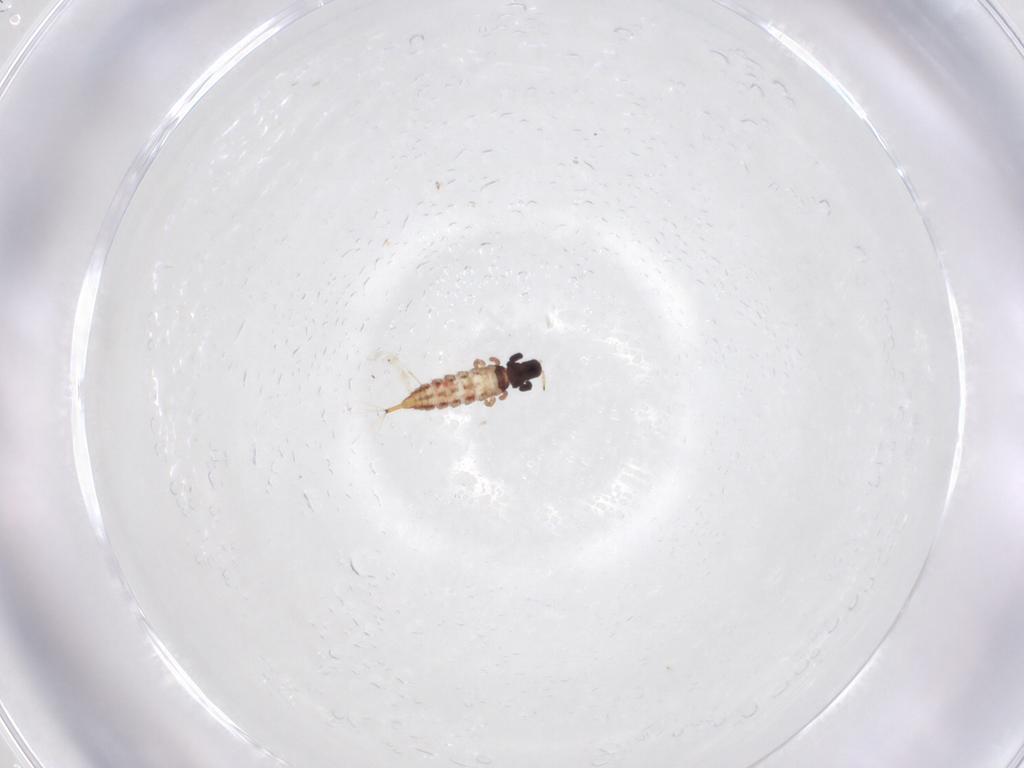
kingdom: Animalia
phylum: Arthropoda
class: Insecta
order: Thysanoptera
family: Phlaeothripidae
